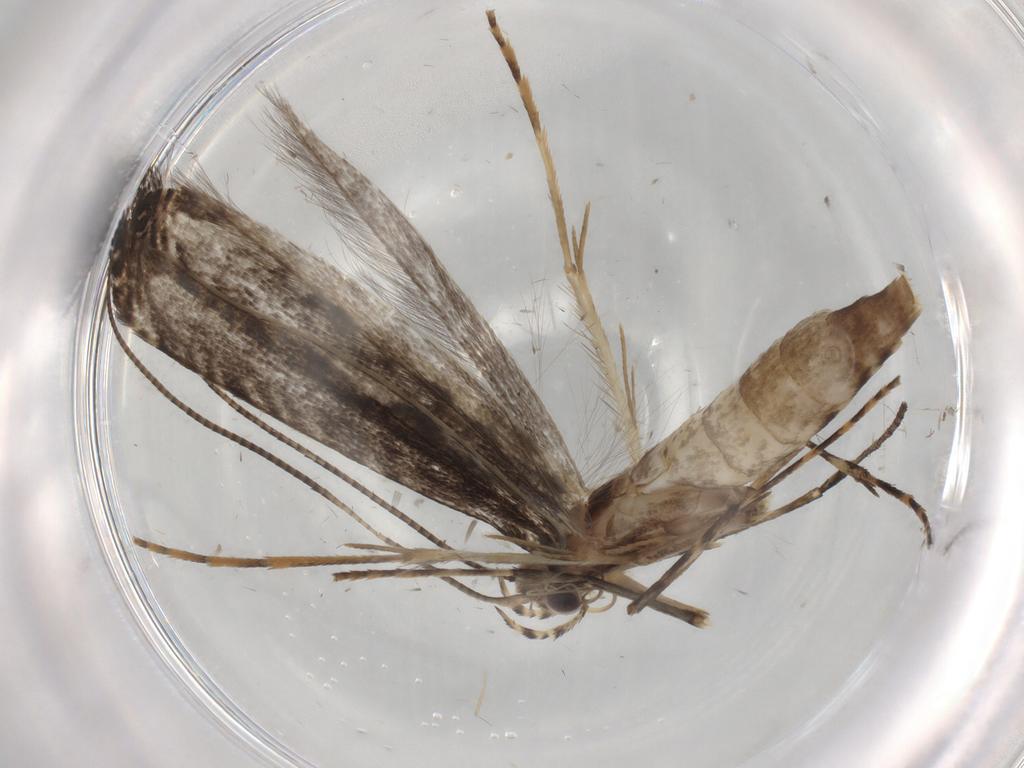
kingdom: Animalia
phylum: Arthropoda
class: Insecta
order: Lepidoptera
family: Gracillariidae
